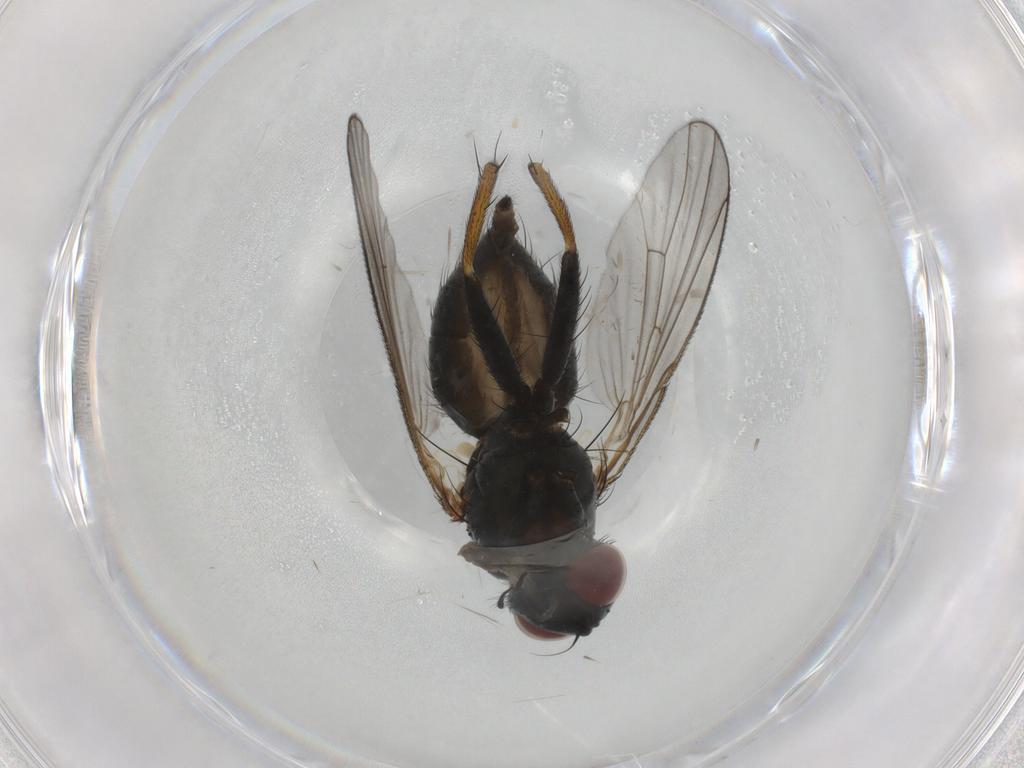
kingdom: Animalia
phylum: Arthropoda
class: Insecta
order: Diptera
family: Muscidae
